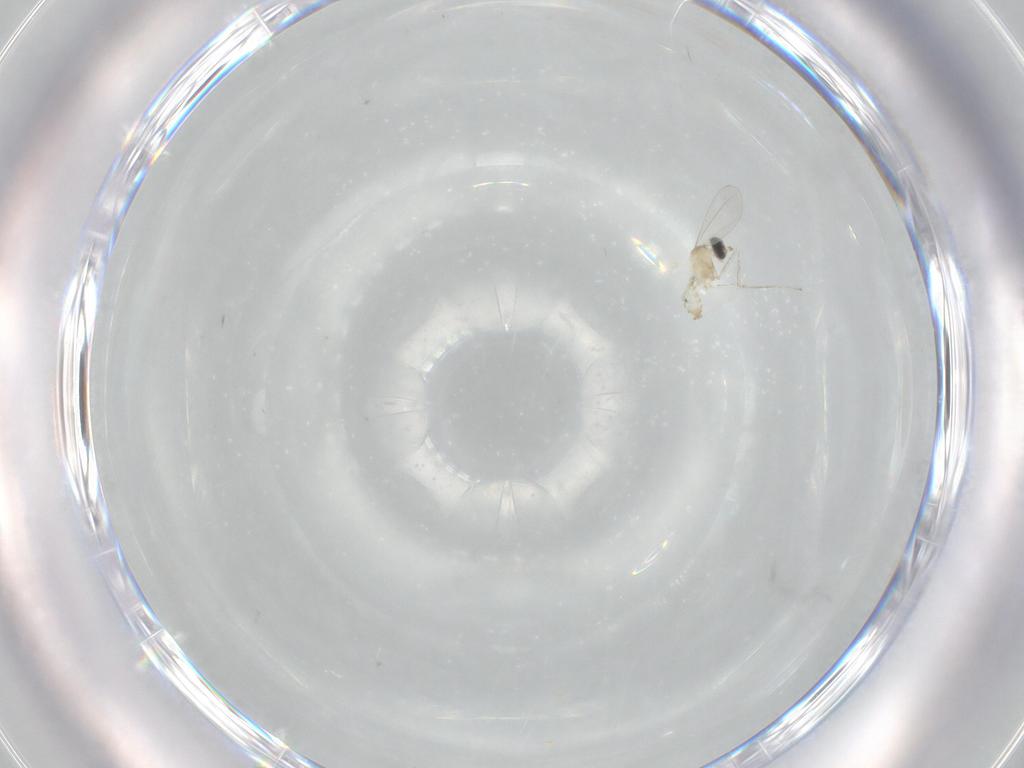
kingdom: Animalia
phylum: Arthropoda
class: Insecta
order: Diptera
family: Cecidomyiidae
